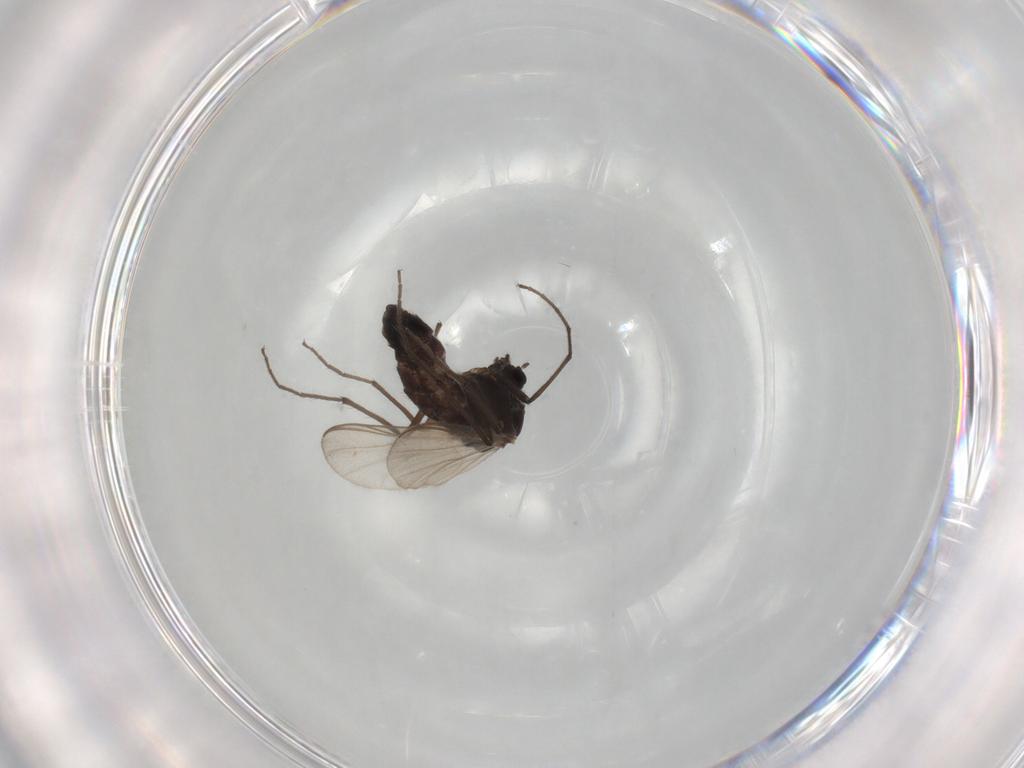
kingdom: Animalia
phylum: Arthropoda
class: Insecta
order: Diptera
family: Chironomidae
